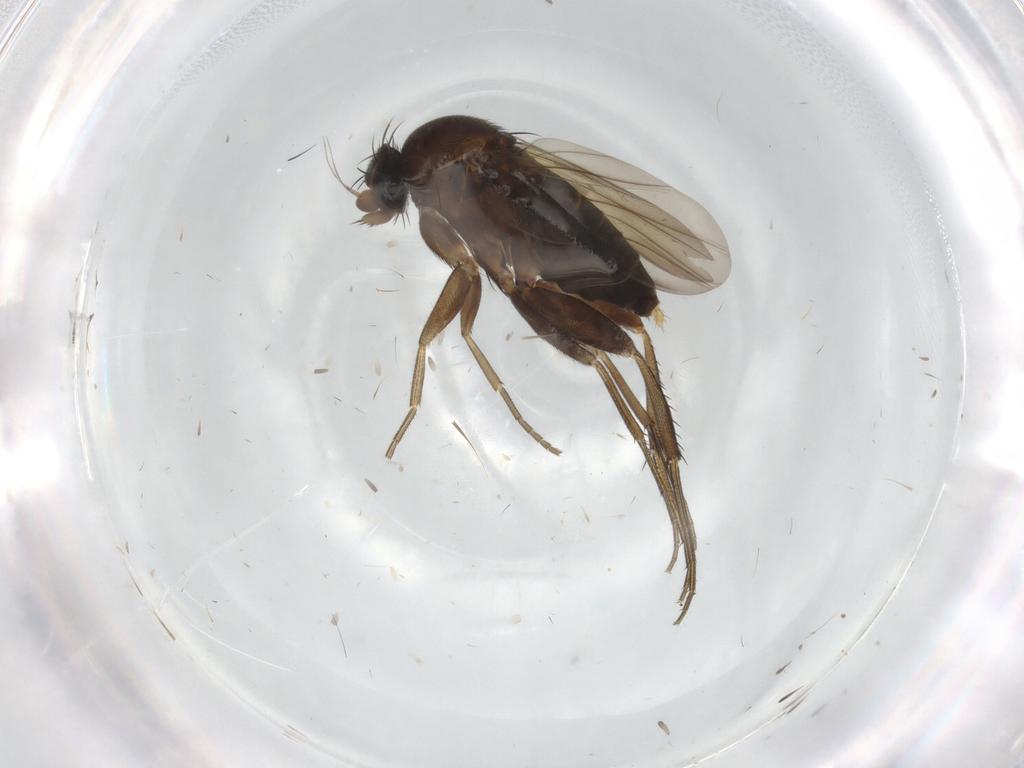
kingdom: Animalia
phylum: Arthropoda
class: Insecta
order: Diptera
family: Phoridae
